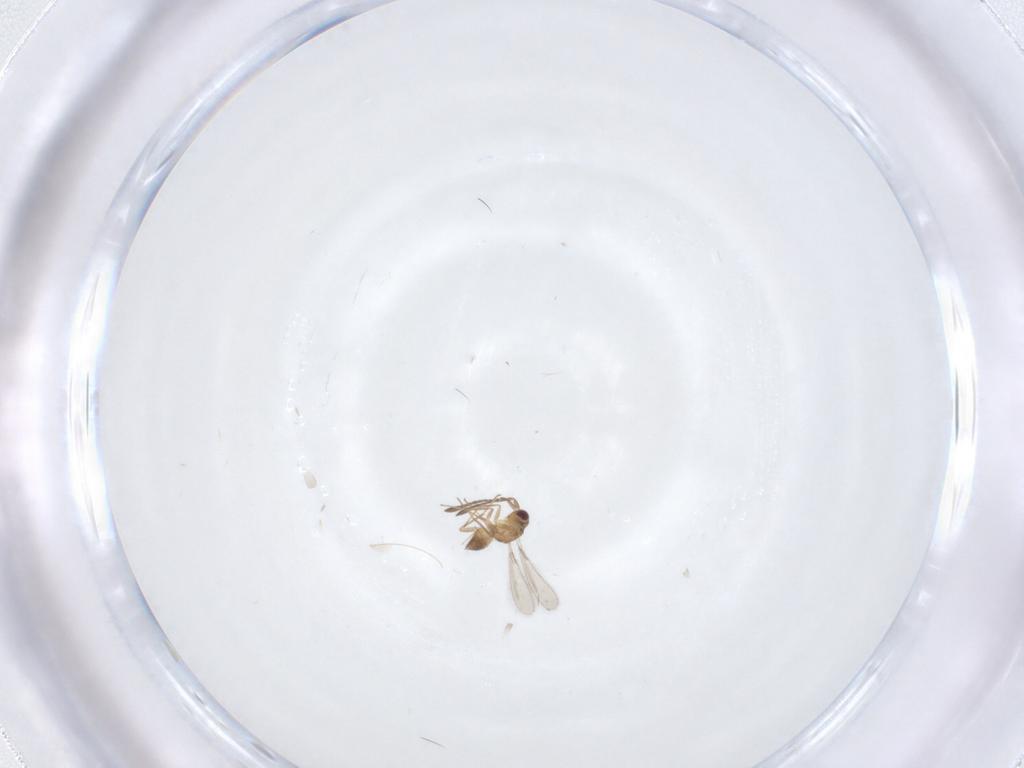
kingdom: Animalia
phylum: Arthropoda
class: Insecta
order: Hymenoptera
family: Mymaridae
